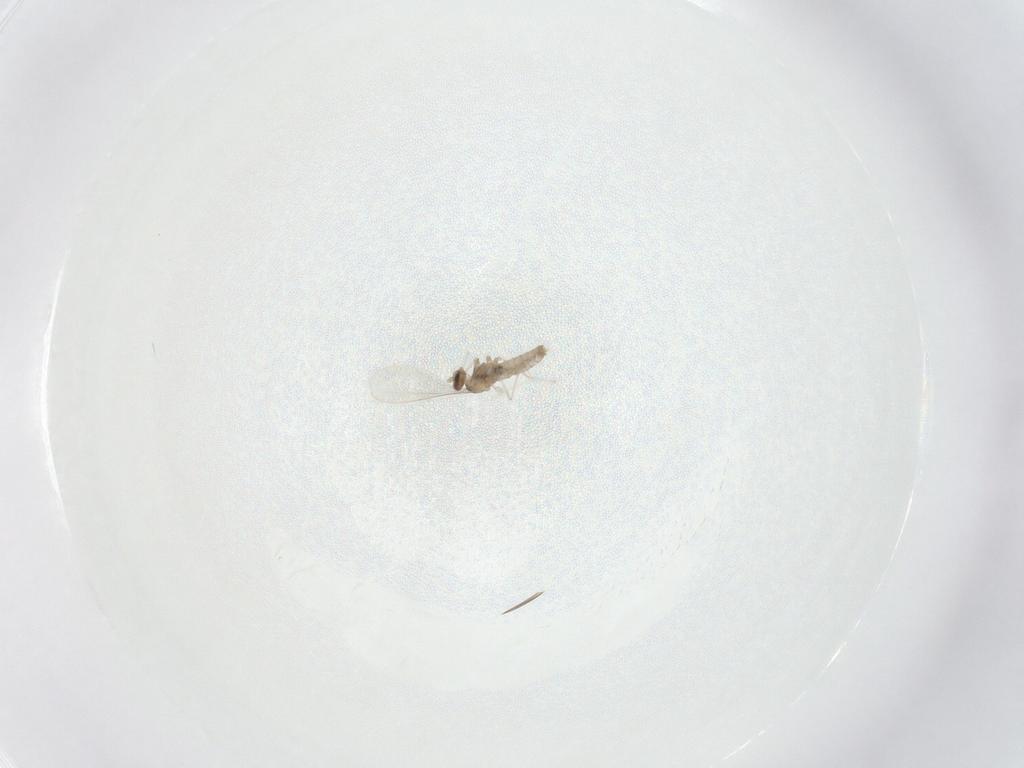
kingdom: Animalia
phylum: Arthropoda
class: Insecta
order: Diptera
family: Cecidomyiidae
